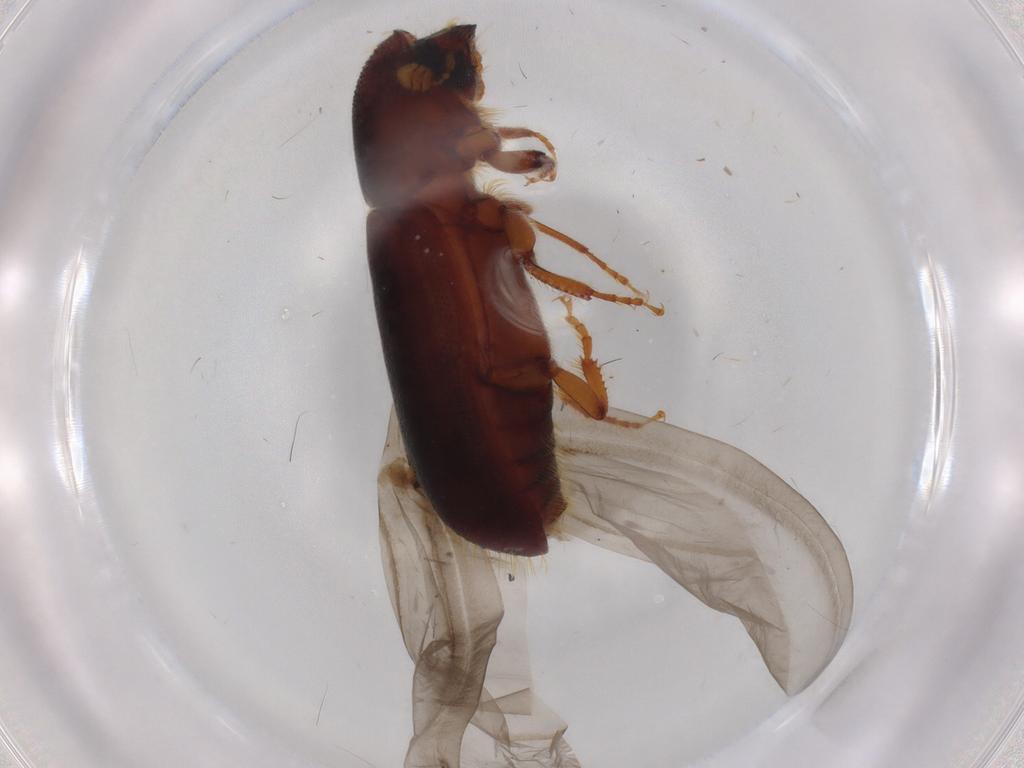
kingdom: Animalia
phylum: Arthropoda
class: Insecta
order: Coleoptera
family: Curculionidae
